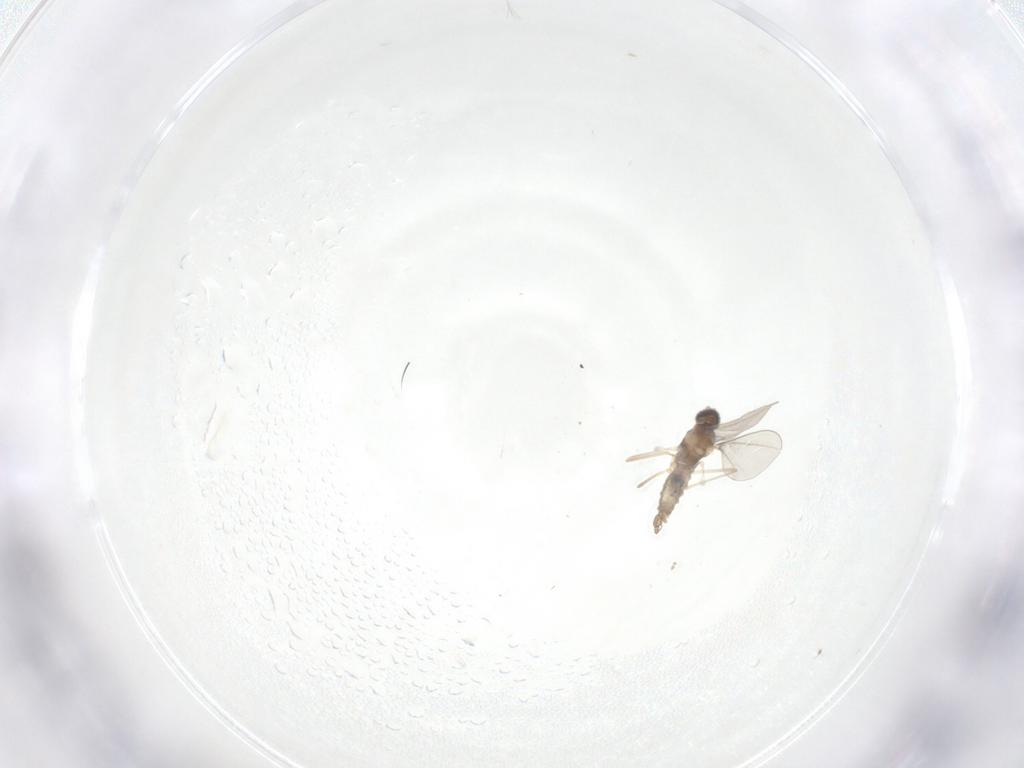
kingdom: Animalia
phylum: Arthropoda
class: Insecta
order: Diptera
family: Cecidomyiidae
